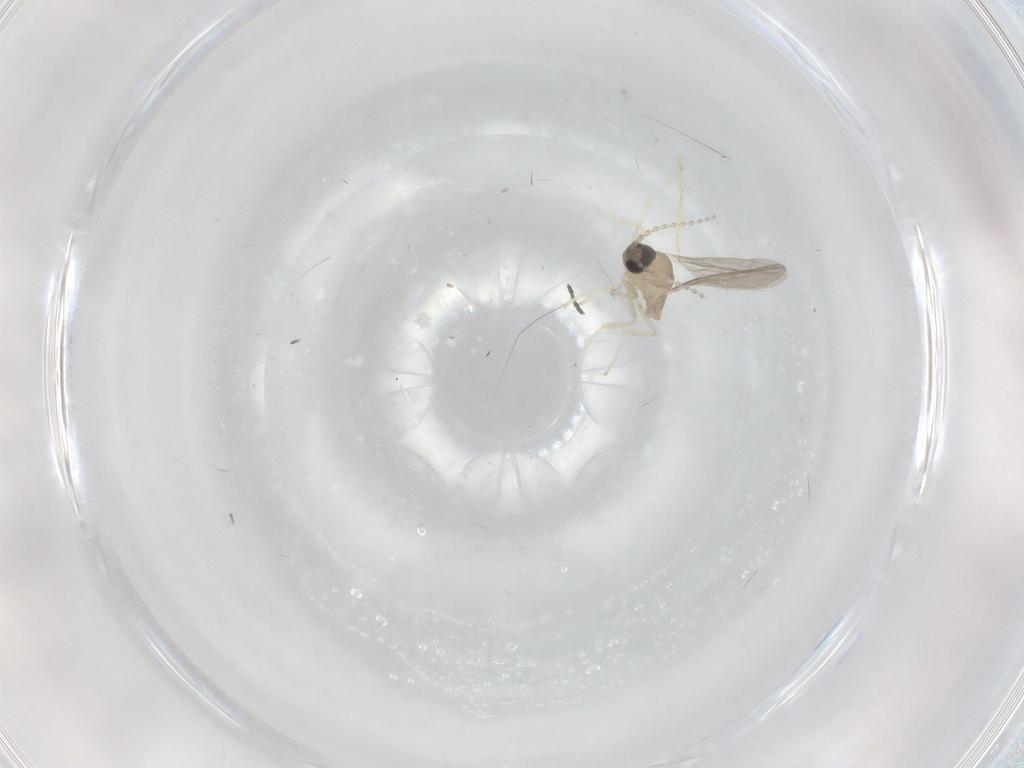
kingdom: Animalia
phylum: Arthropoda
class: Insecta
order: Diptera
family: Cecidomyiidae
